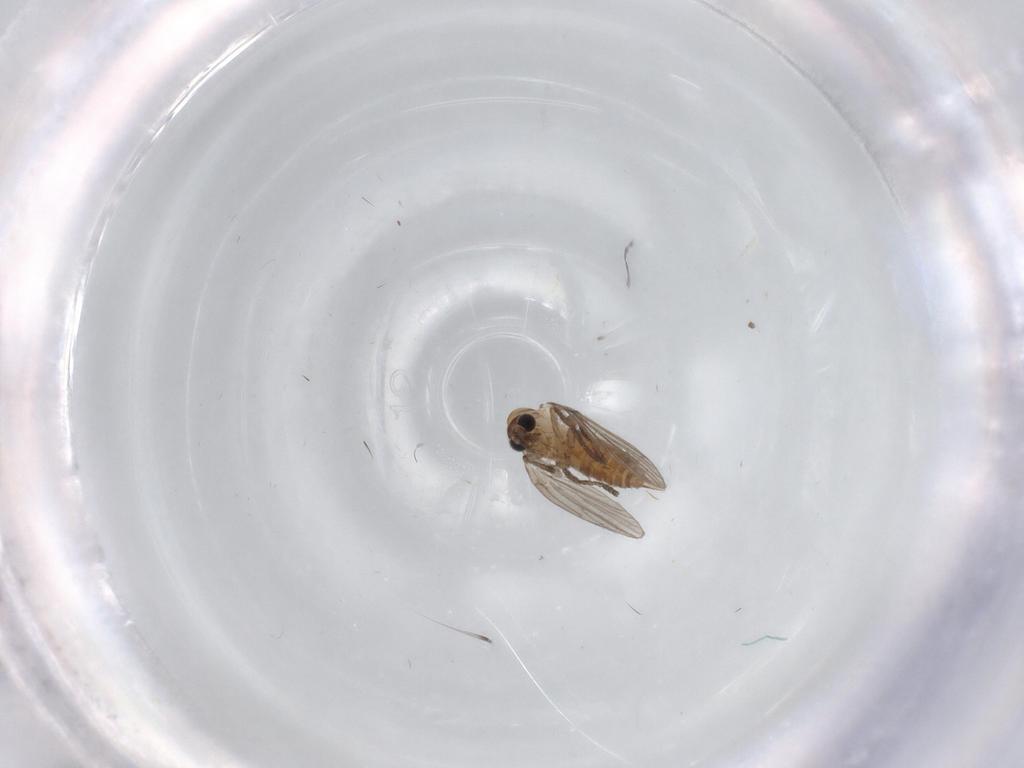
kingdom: Animalia
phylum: Arthropoda
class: Insecta
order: Diptera
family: Psychodidae
